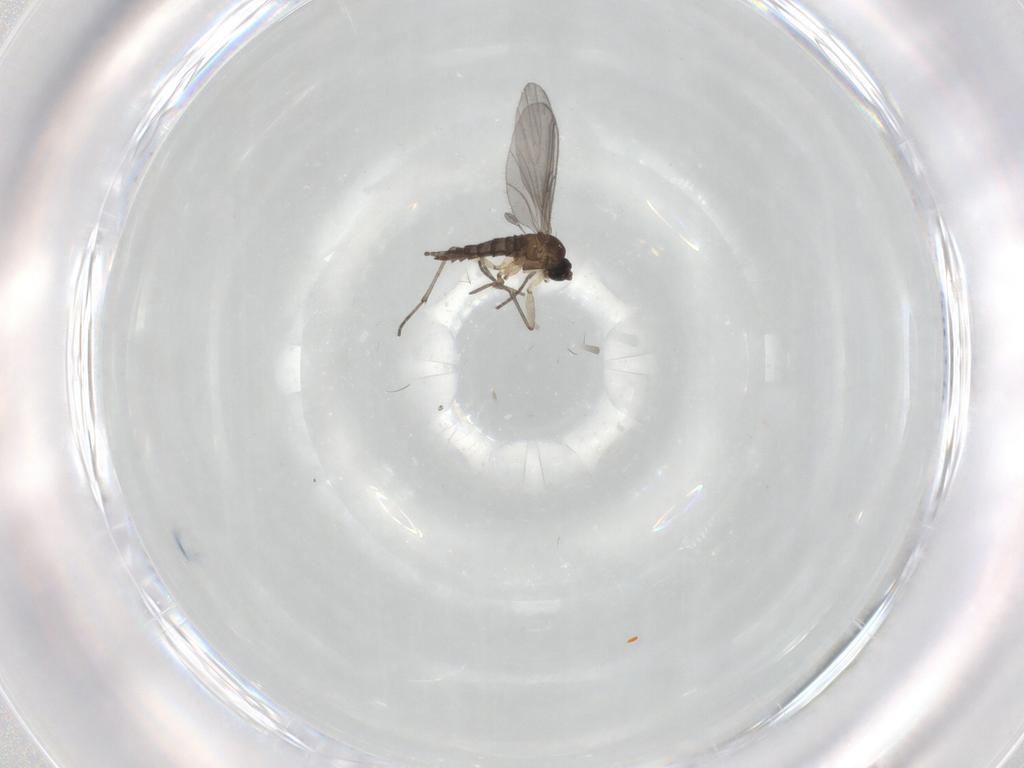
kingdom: Animalia
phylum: Arthropoda
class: Insecta
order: Diptera
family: Sciaridae
